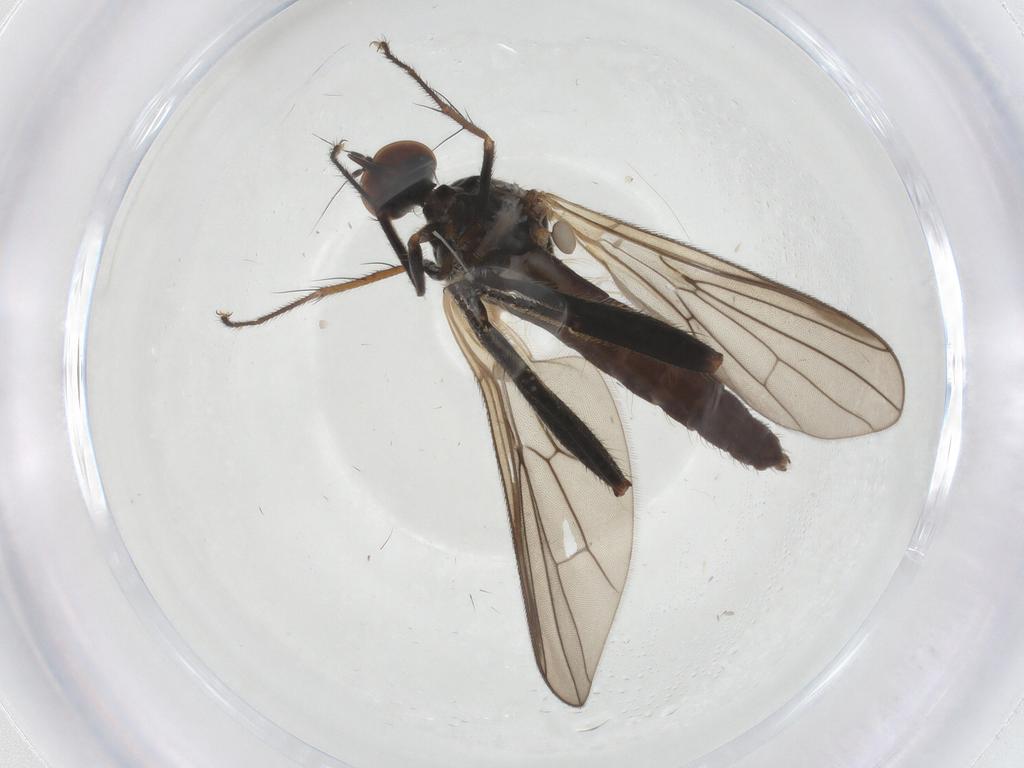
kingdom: Animalia
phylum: Arthropoda
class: Insecta
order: Diptera
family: Hybotidae
